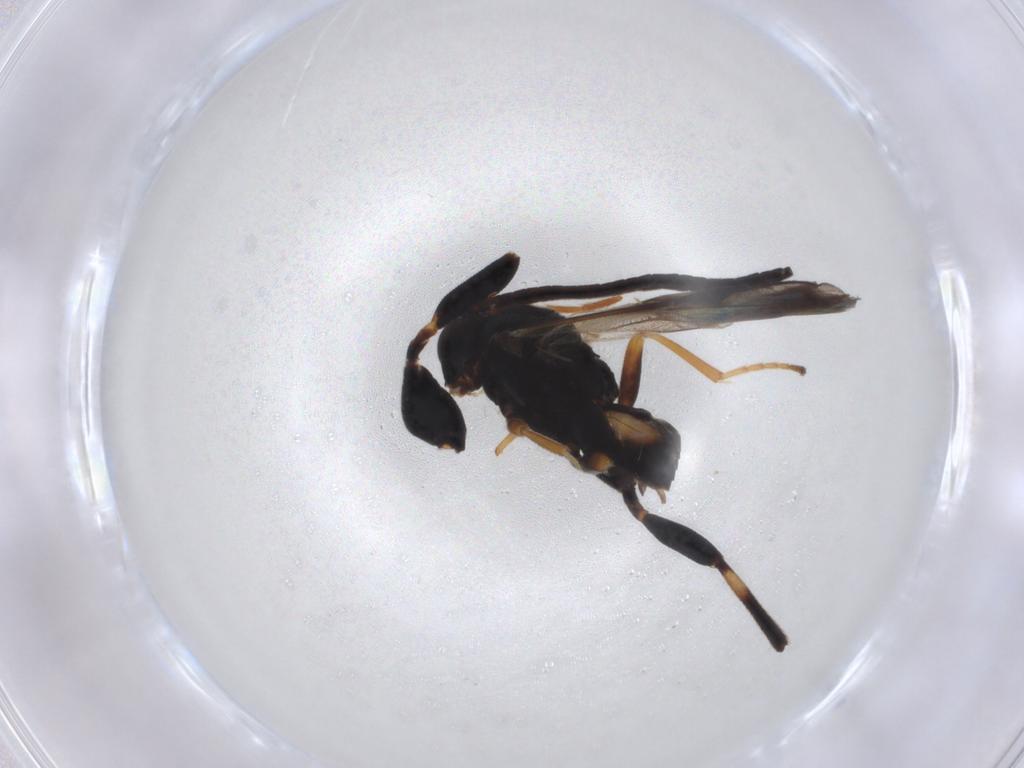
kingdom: Animalia
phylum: Arthropoda
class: Insecta
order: Hymenoptera
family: Braconidae
